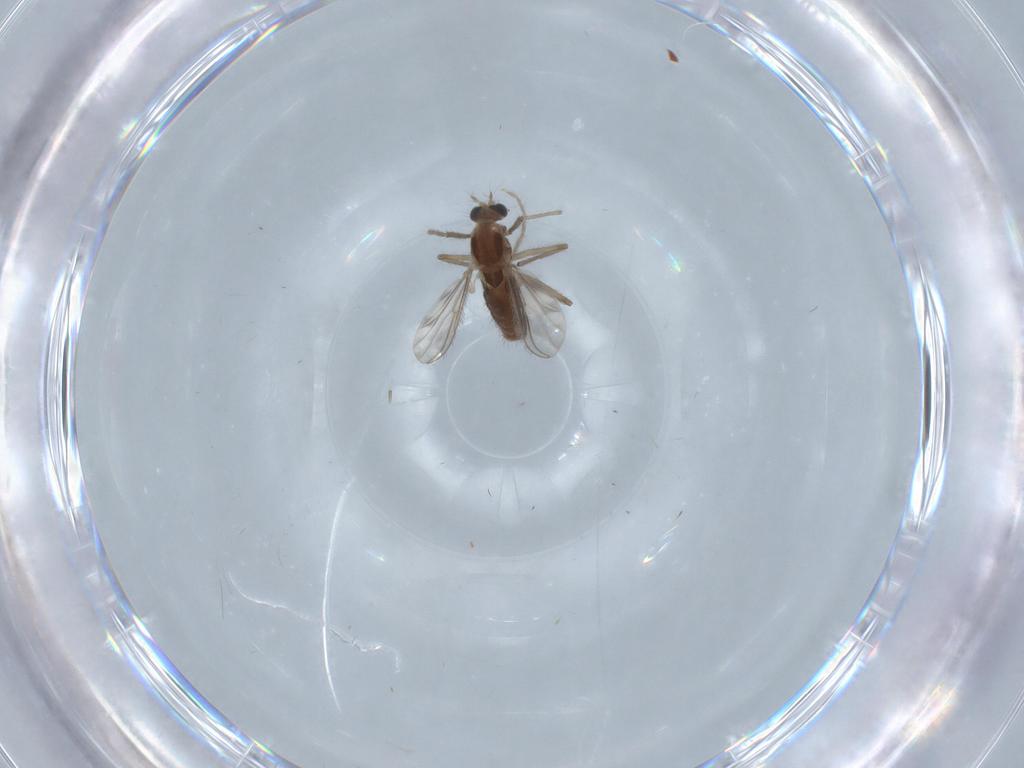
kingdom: Animalia
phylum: Arthropoda
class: Insecta
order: Diptera
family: Chironomidae
